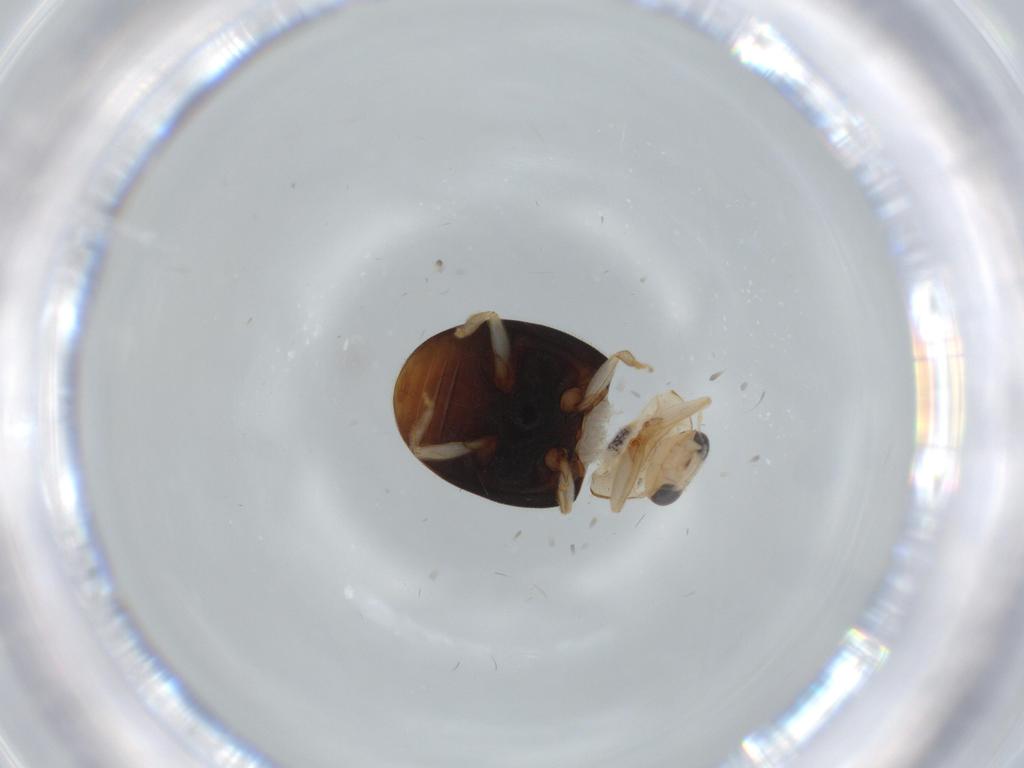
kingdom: Animalia
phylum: Arthropoda
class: Insecta
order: Coleoptera
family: Coccinellidae
